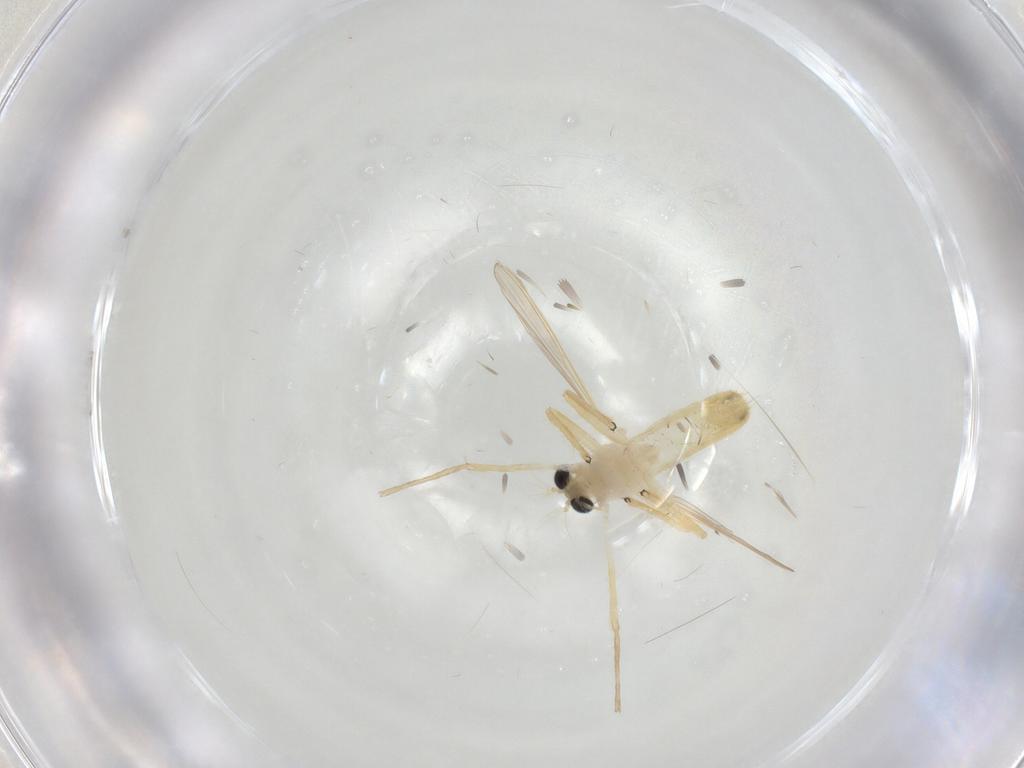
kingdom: Animalia
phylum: Arthropoda
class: Insecta
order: Diptera
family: Chironomidae
